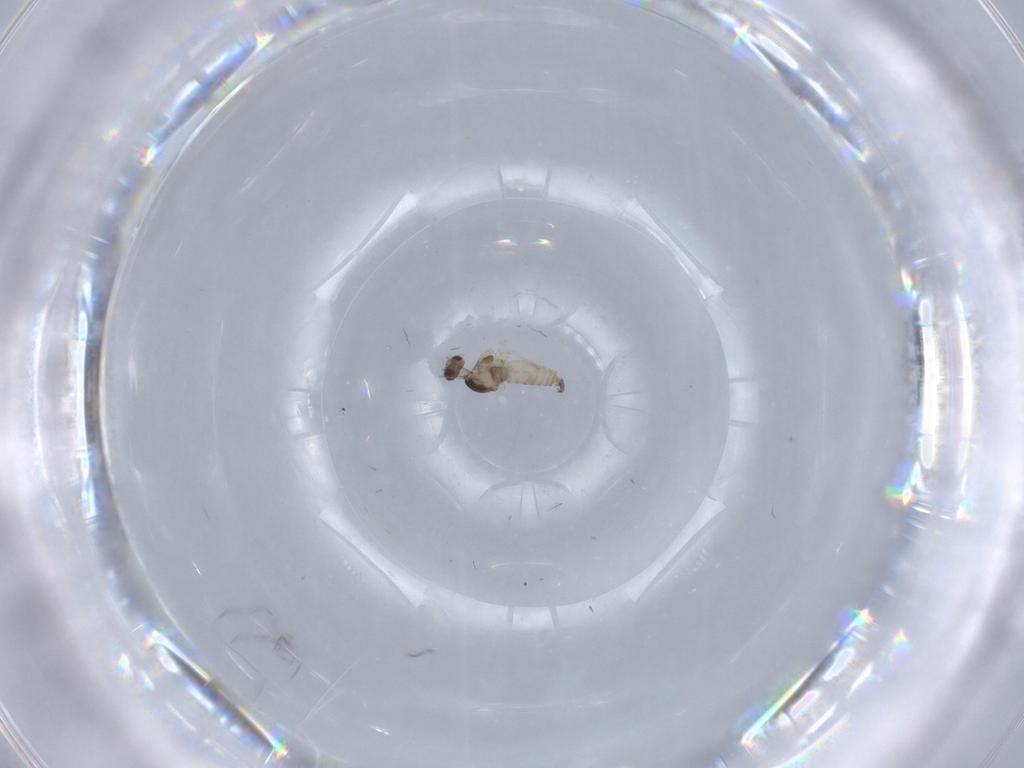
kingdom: Animalia
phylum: Arthropoda
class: Insecta
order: Diptera
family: Cecidomyiidae
